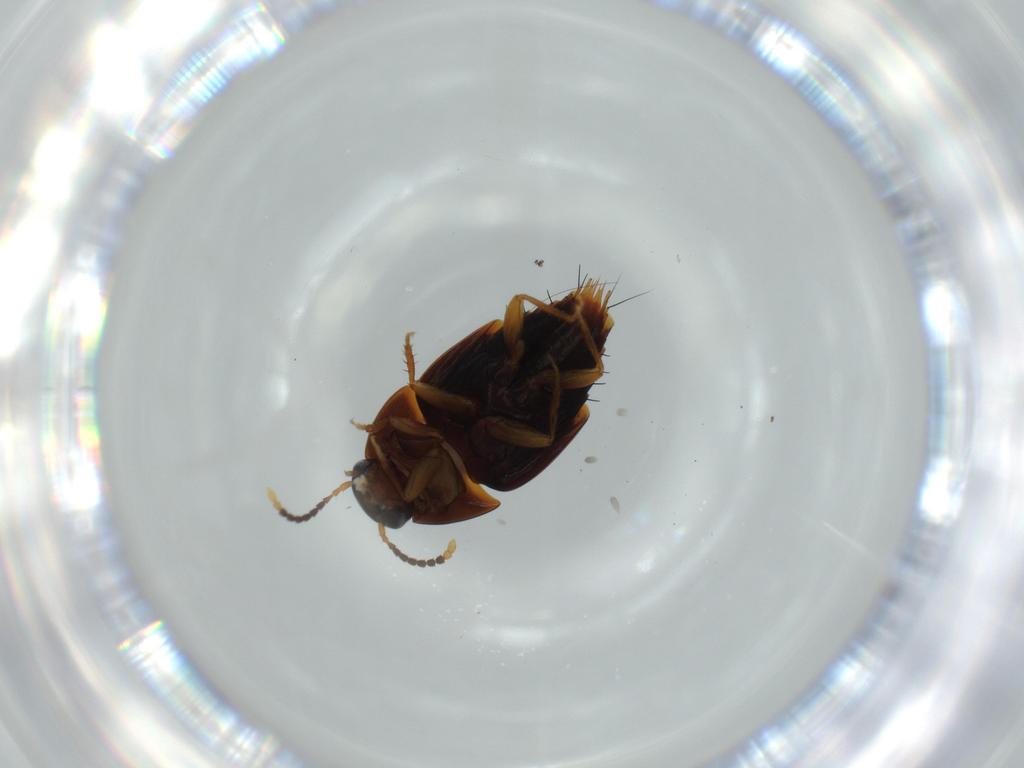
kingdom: Animalia
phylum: Arthropoda
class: Insecta
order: Coleoptera
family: Staphylinidae
